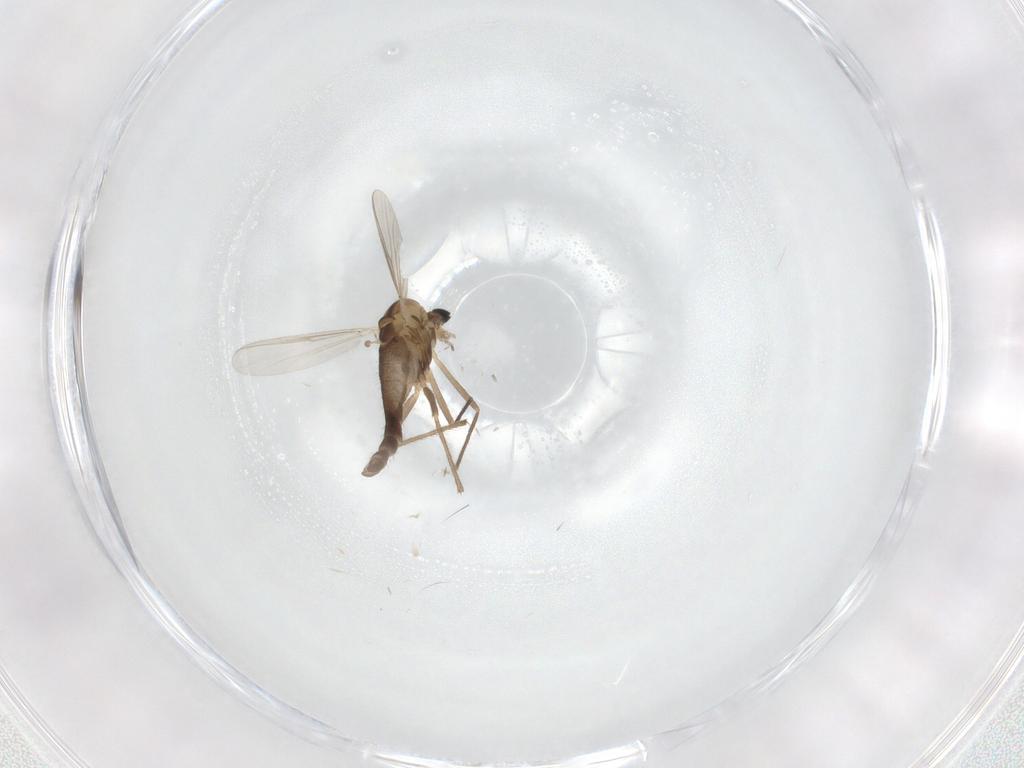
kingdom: Animalia
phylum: Arthropoda
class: Insecta
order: Diptera
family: Chironomidae
